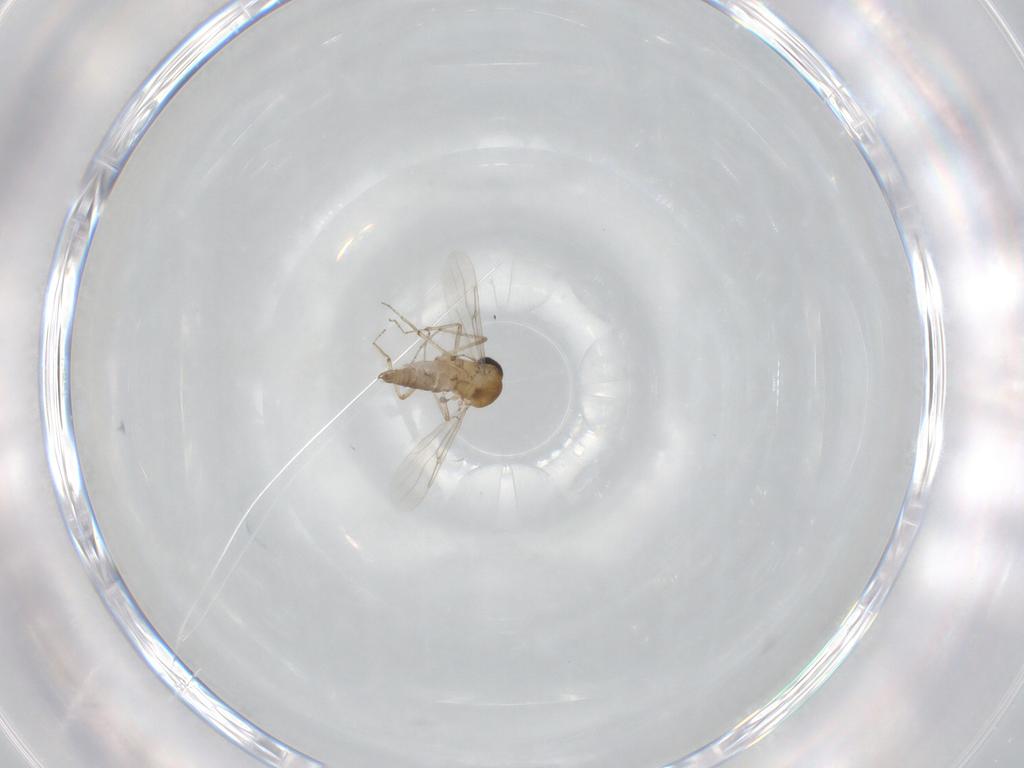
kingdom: Animalia
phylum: Arthropoda
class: Insecta
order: Diptera
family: Ceratopogonidae
